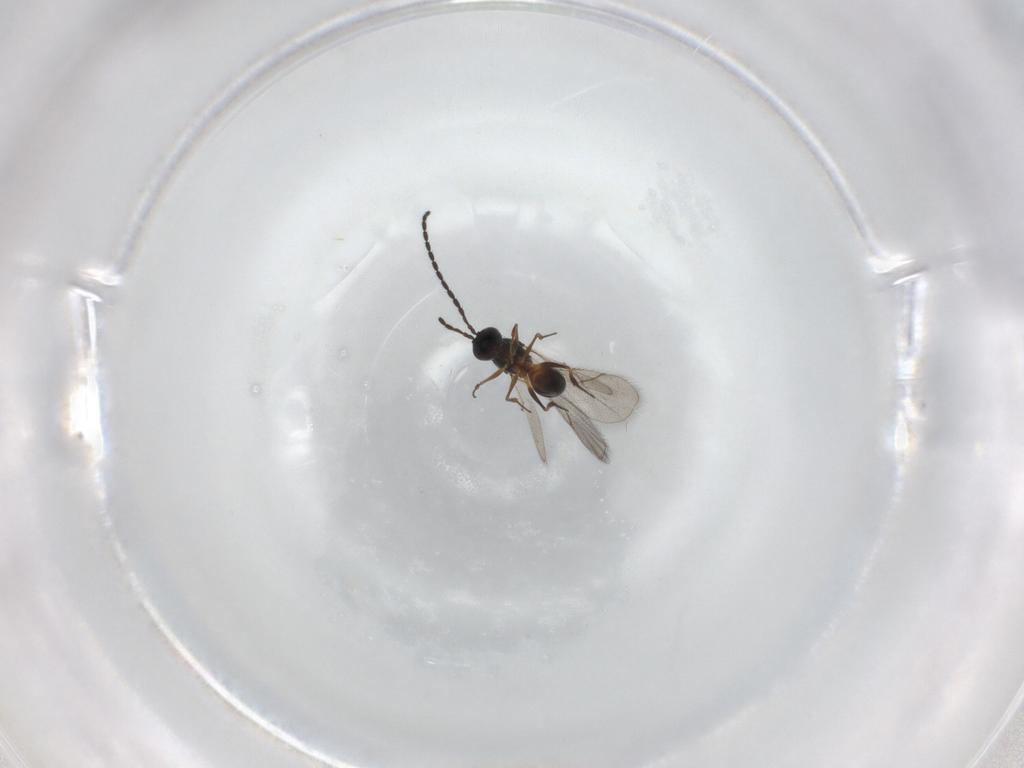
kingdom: Animalia
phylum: Arthropoda
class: Insecta
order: Hymenoptera
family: Figitidae
